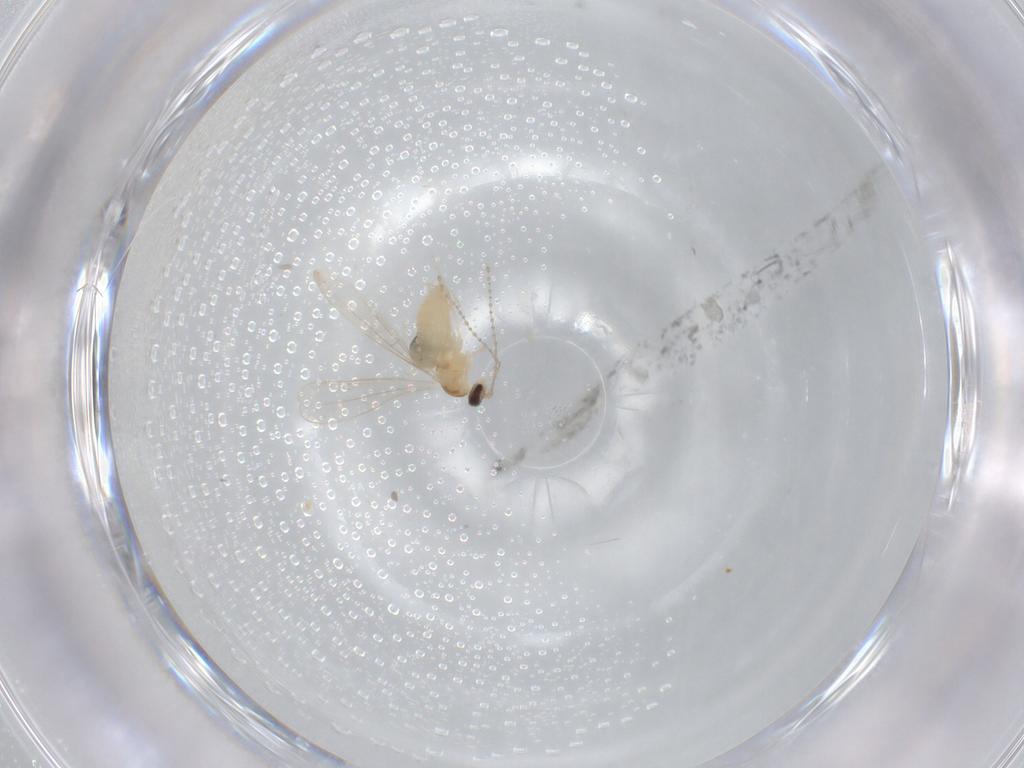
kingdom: Animalia
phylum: Arthropoda
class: Insecta
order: Diptera
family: Cecidomyiidae
